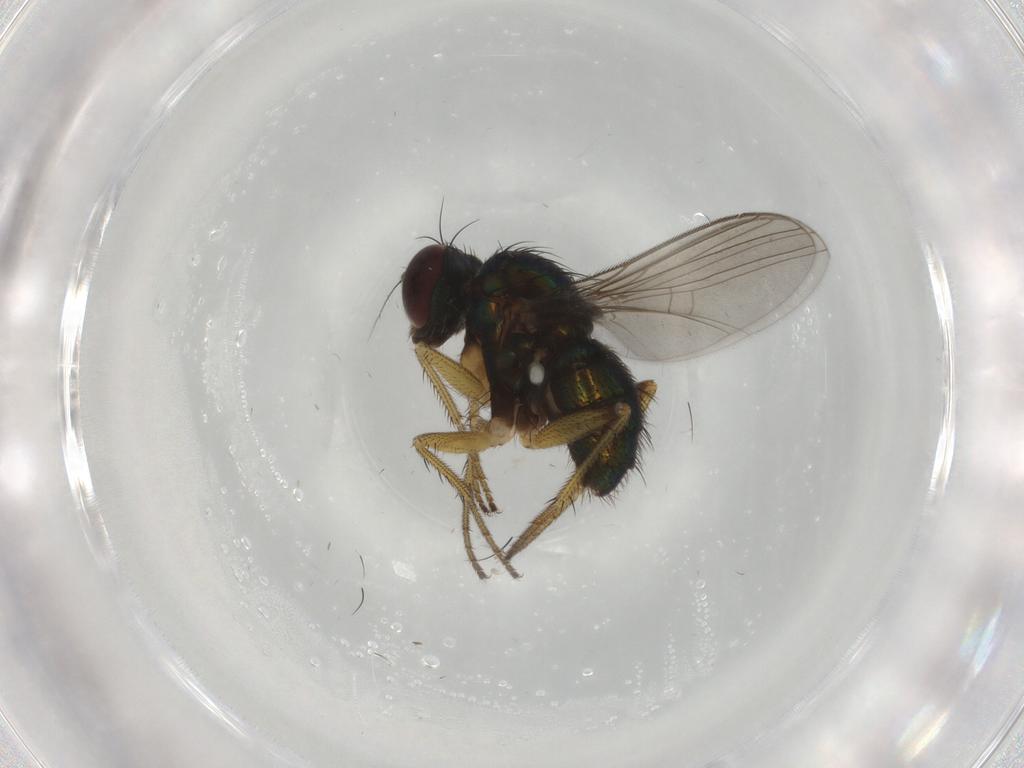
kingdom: Animalia
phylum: Arthropoda
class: Insecta
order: Diptera
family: Dolichopodidae
